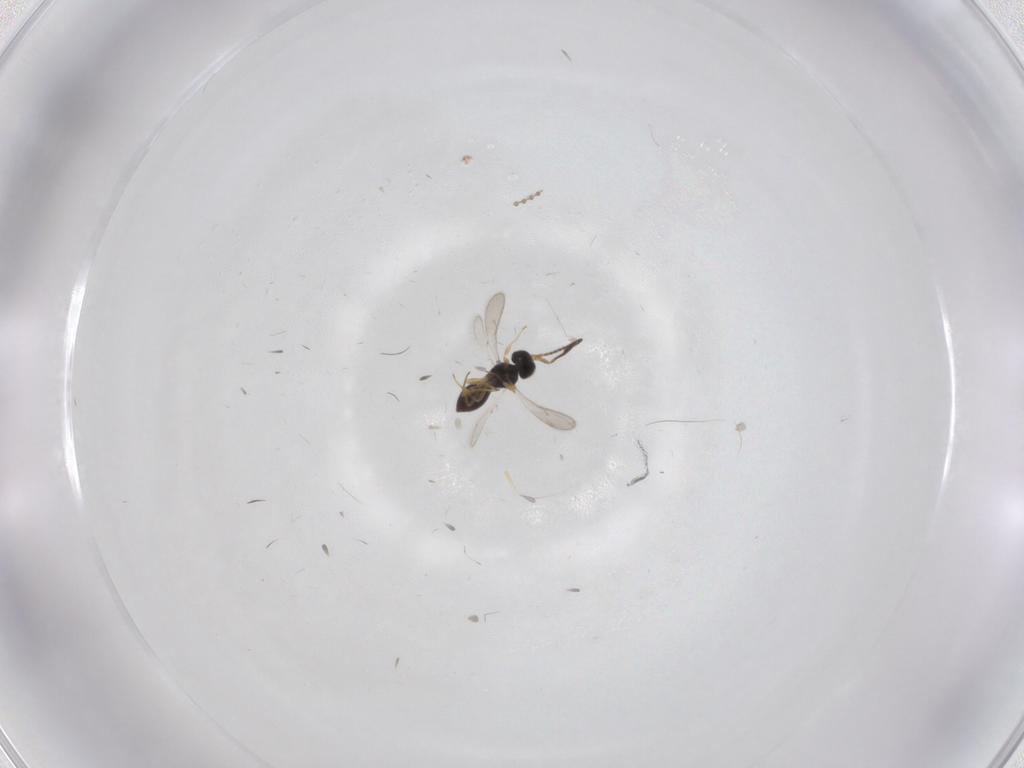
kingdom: Animalia
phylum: Arthropoda
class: Insecta
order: Hymenoptera
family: Scelionidae
